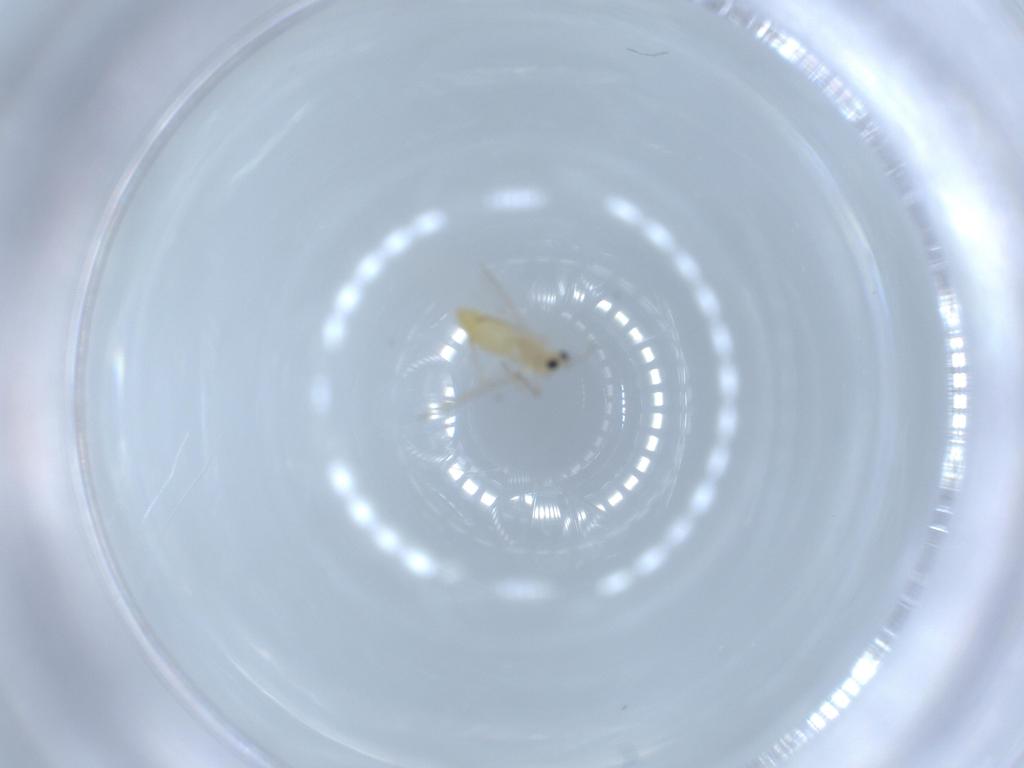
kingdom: Animalia
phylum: Arthropoda
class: Insecta
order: Diptera
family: Chironomidae
